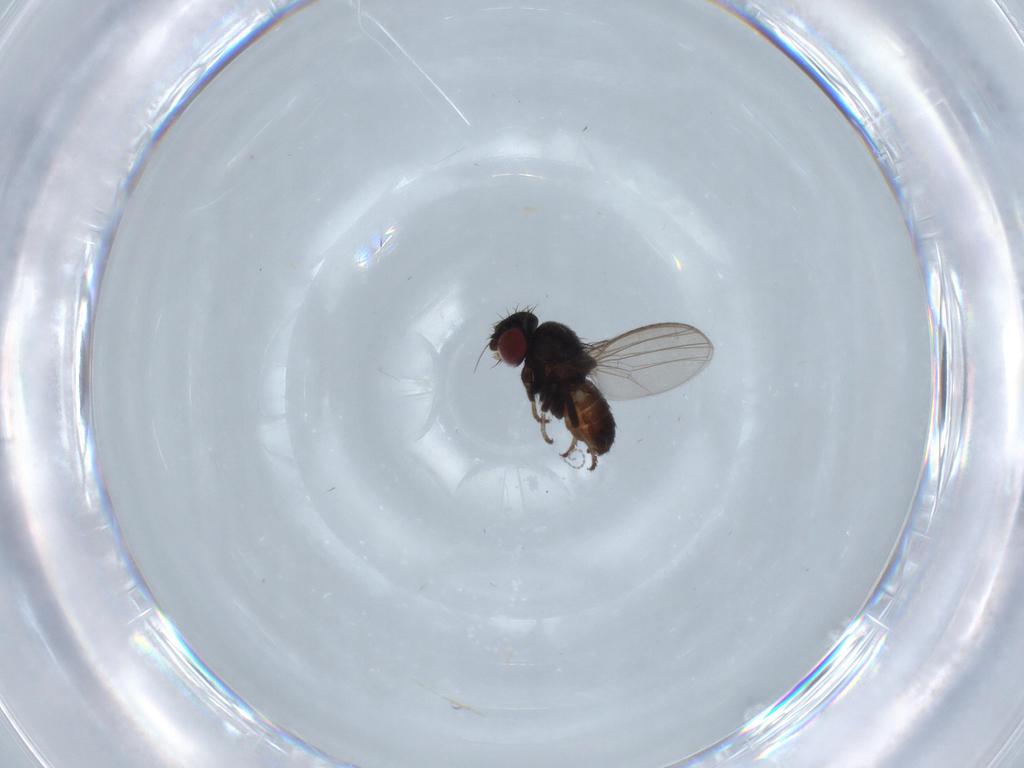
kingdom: Animalia
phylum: Arthropoda
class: Insecta
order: Diptera
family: Milichiidae
